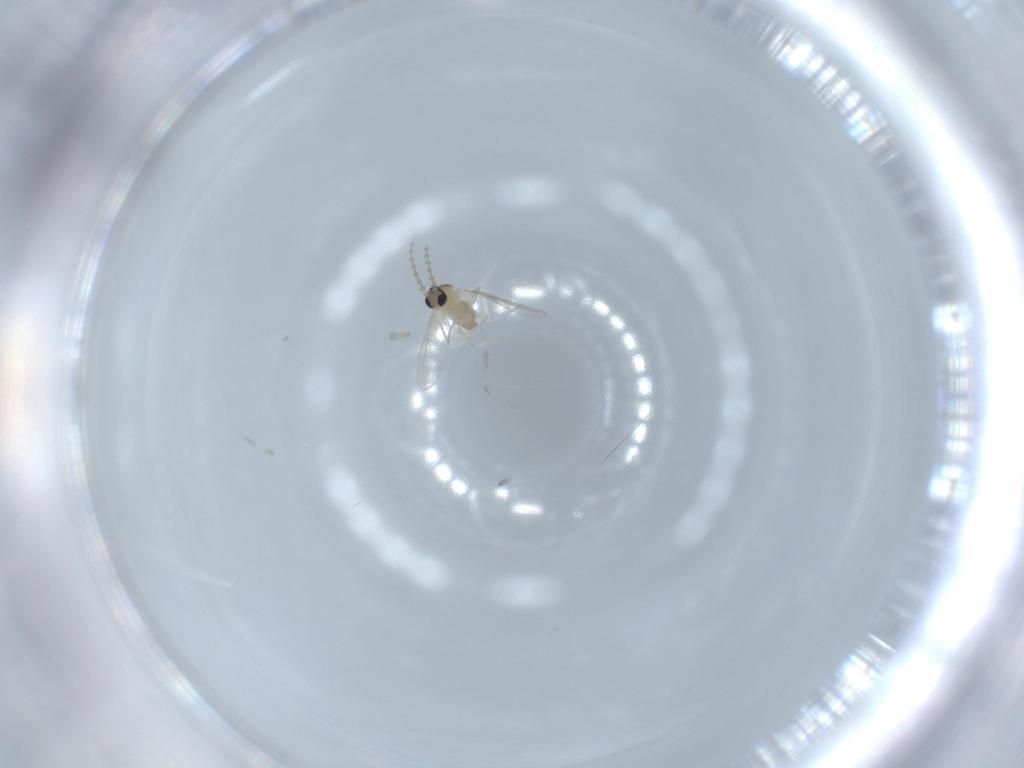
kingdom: Animalia
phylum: Arthropoda
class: Insecta
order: Diptera
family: Cecidomyiidae
